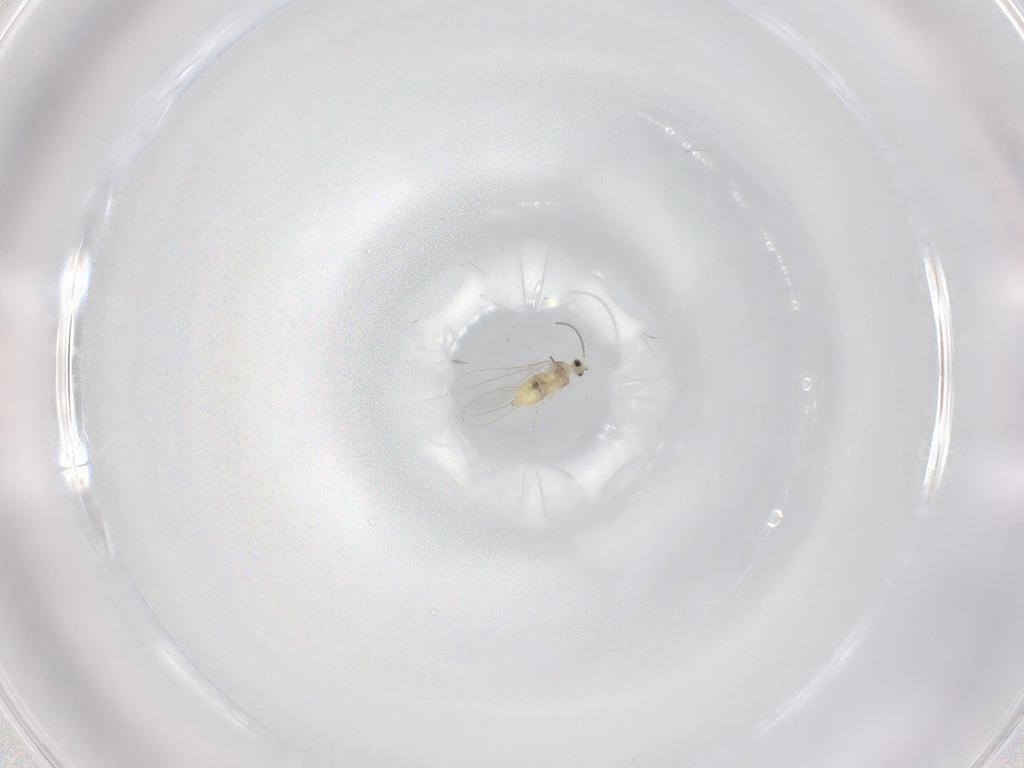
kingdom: Animalia
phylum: Arthropoda
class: Insecta
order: Diptera
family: Cecidomyiidae
